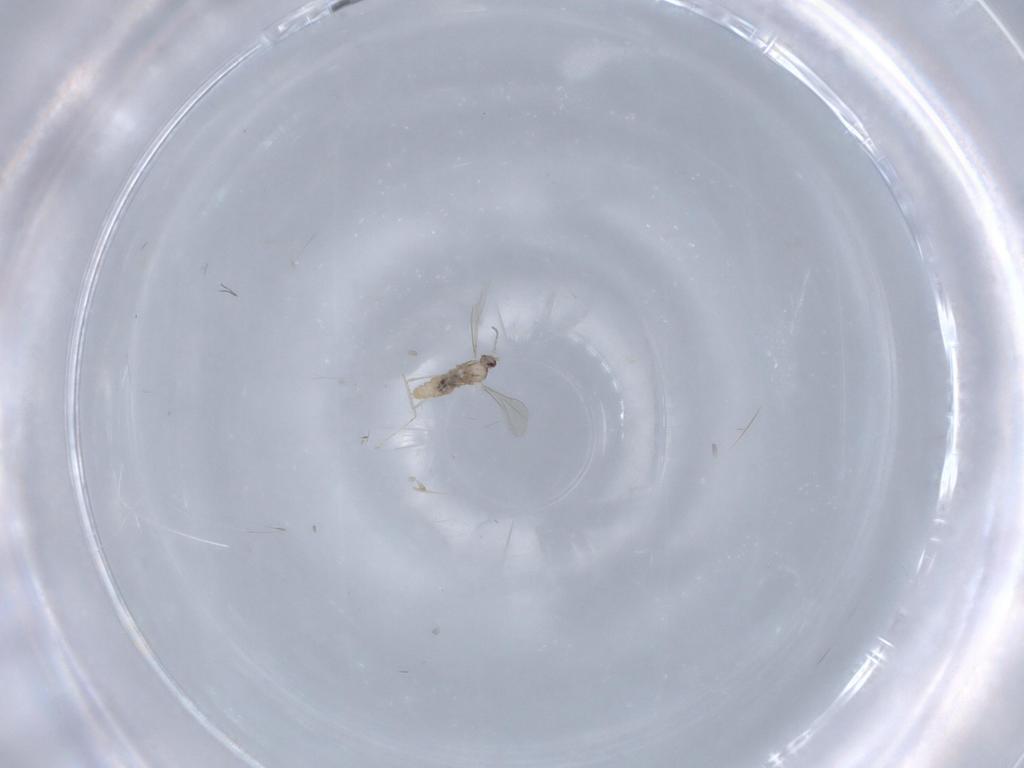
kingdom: Animalia
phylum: Arthropoda
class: Insecta
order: Diptera
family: Cecidomyiidae
